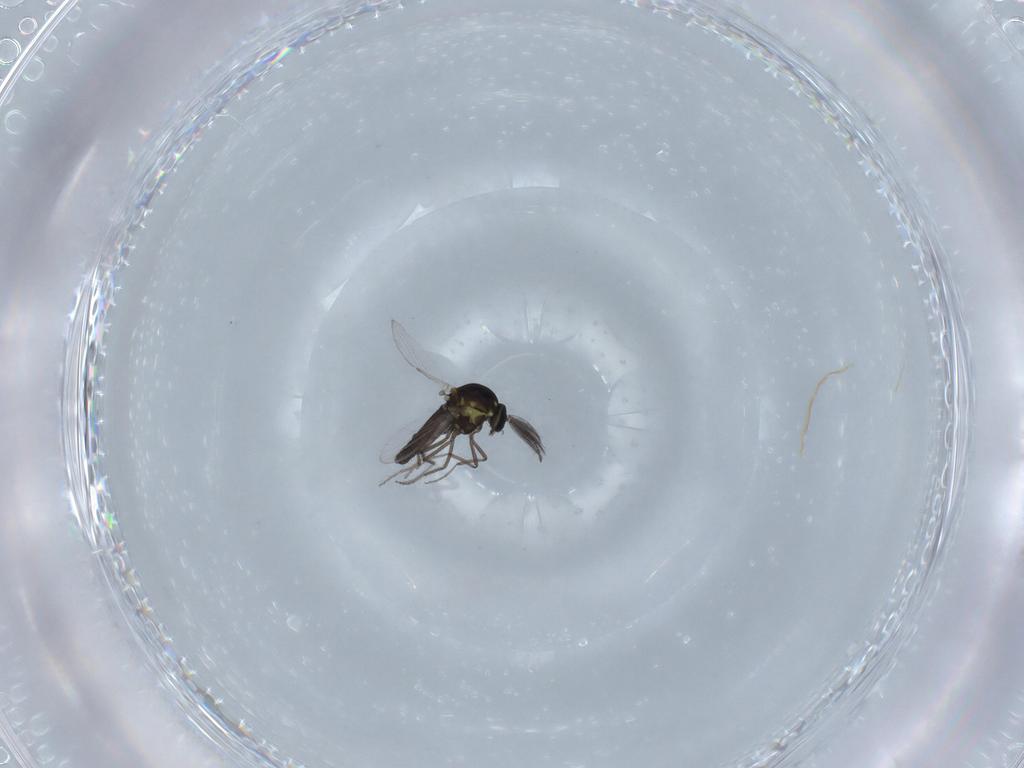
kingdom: Animalia
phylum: Arthropoda
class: Insecta
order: Diptera
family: Ceratopogonidae
